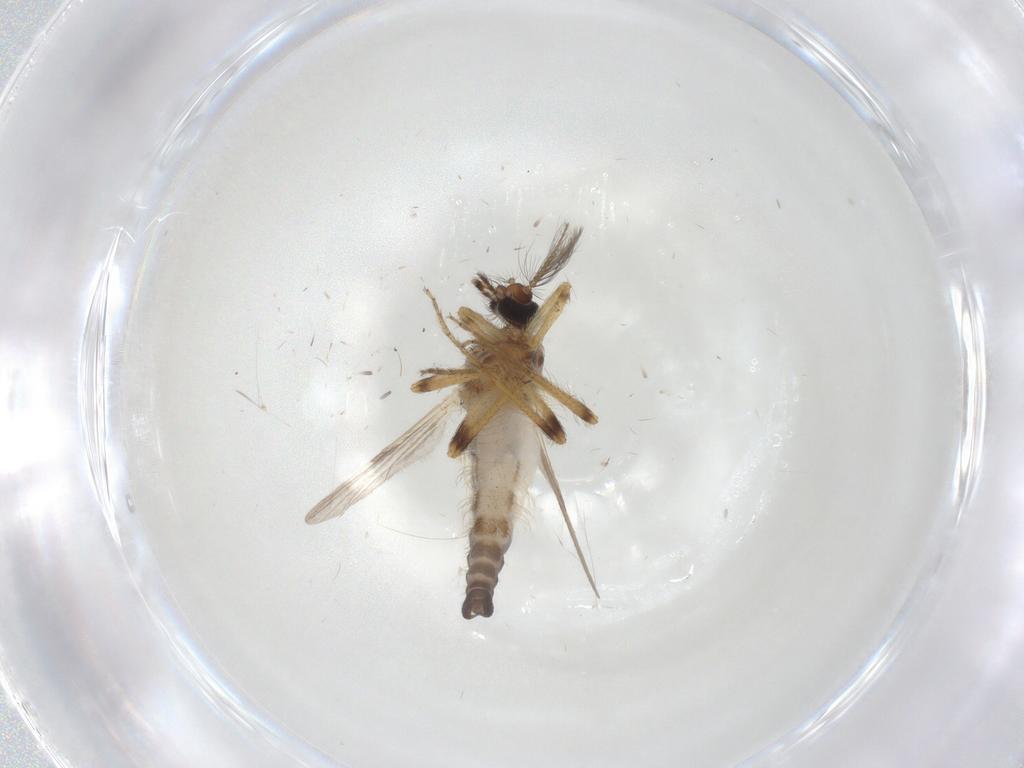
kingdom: Animalia
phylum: Arthropoda
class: Insecta
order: Diptera
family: Ceratopogonidae
